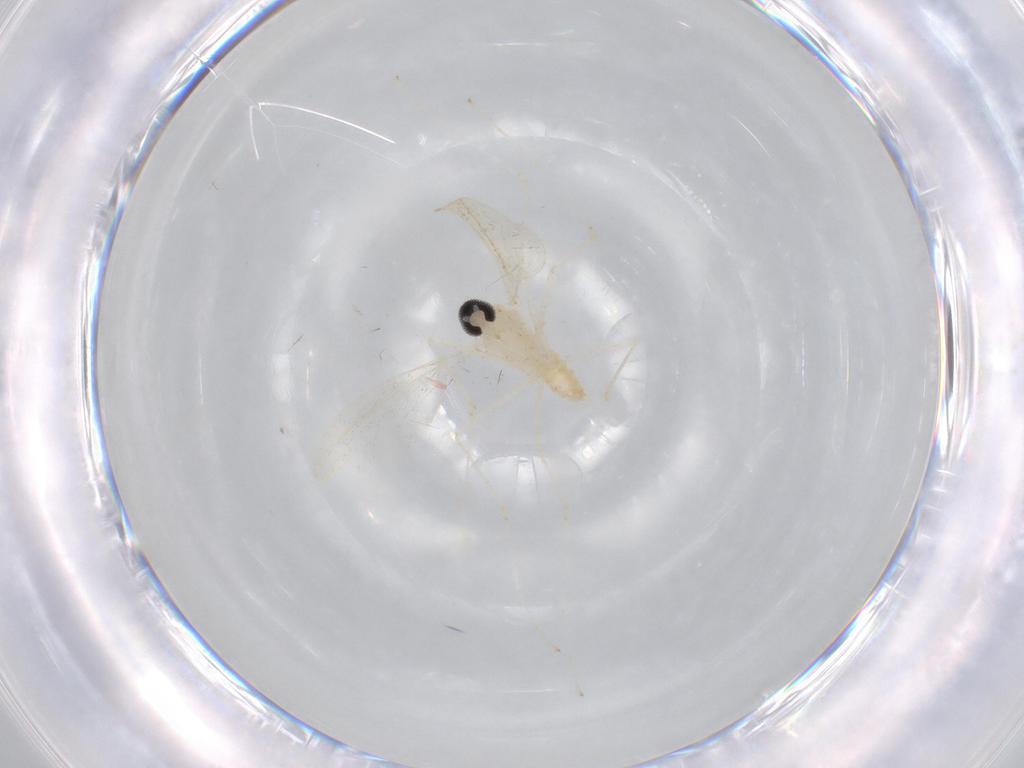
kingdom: Animalia
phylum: Arthropoda
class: Insecta
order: Diptera
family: Cecidomyiidae
